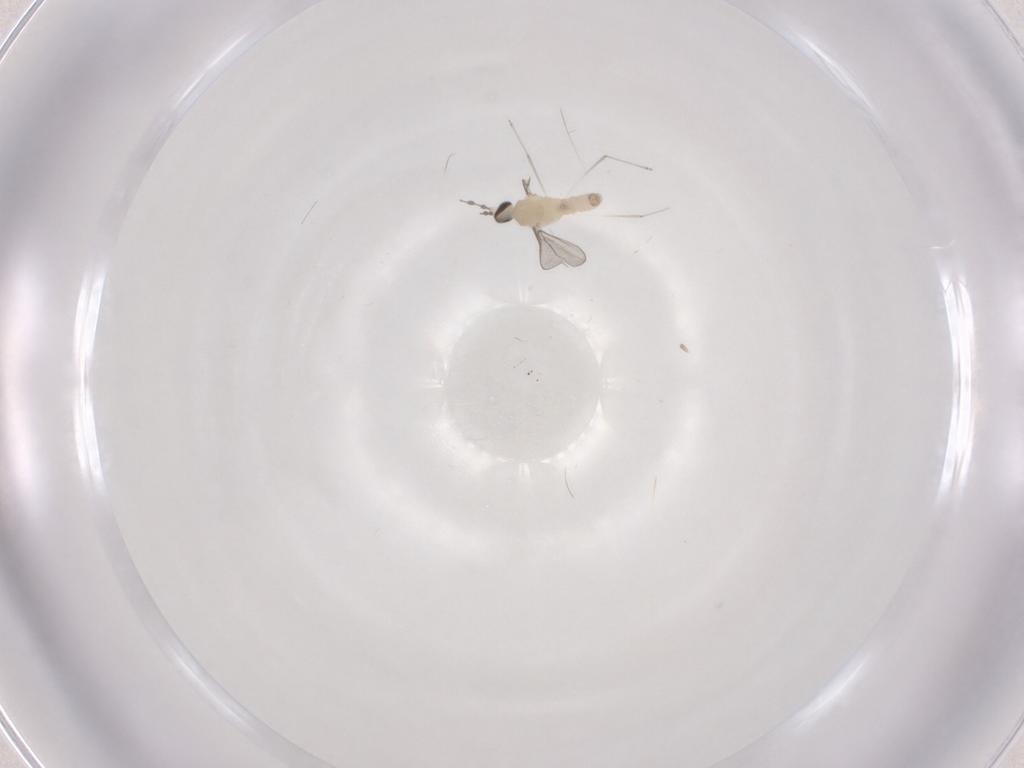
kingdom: Animalia
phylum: Arthropoda
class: Insecta
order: Diptera
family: Cecidomyiidae
